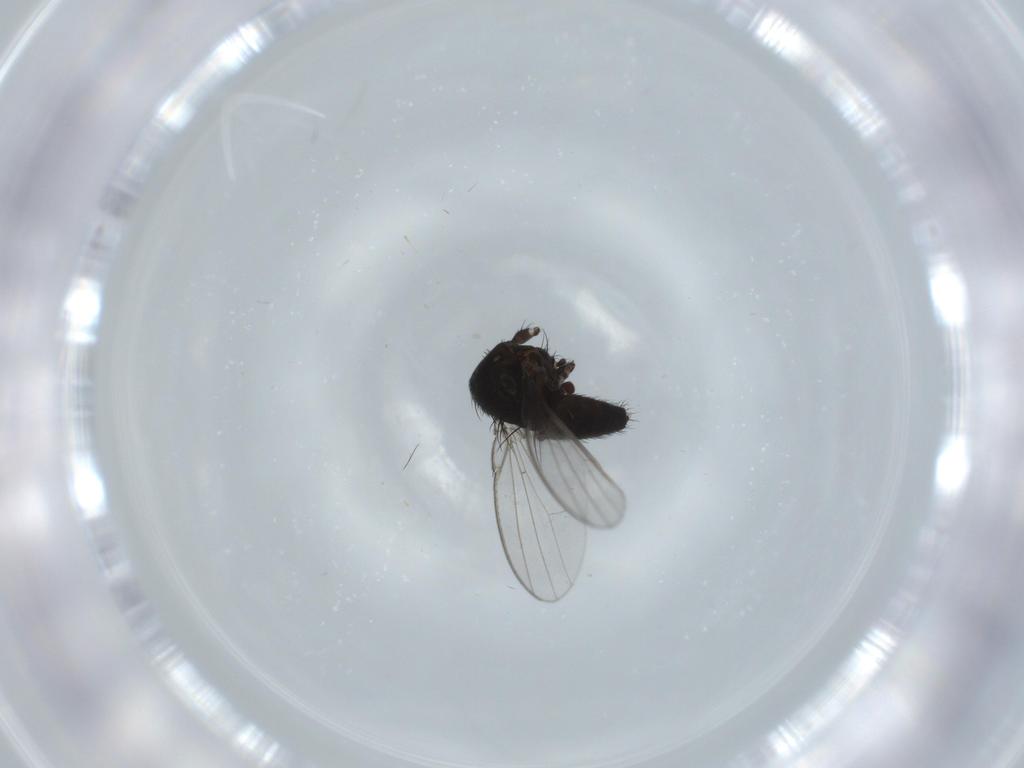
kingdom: Animalia
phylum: Arthropoda
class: Insecta
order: Diptera
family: Milichiidae
